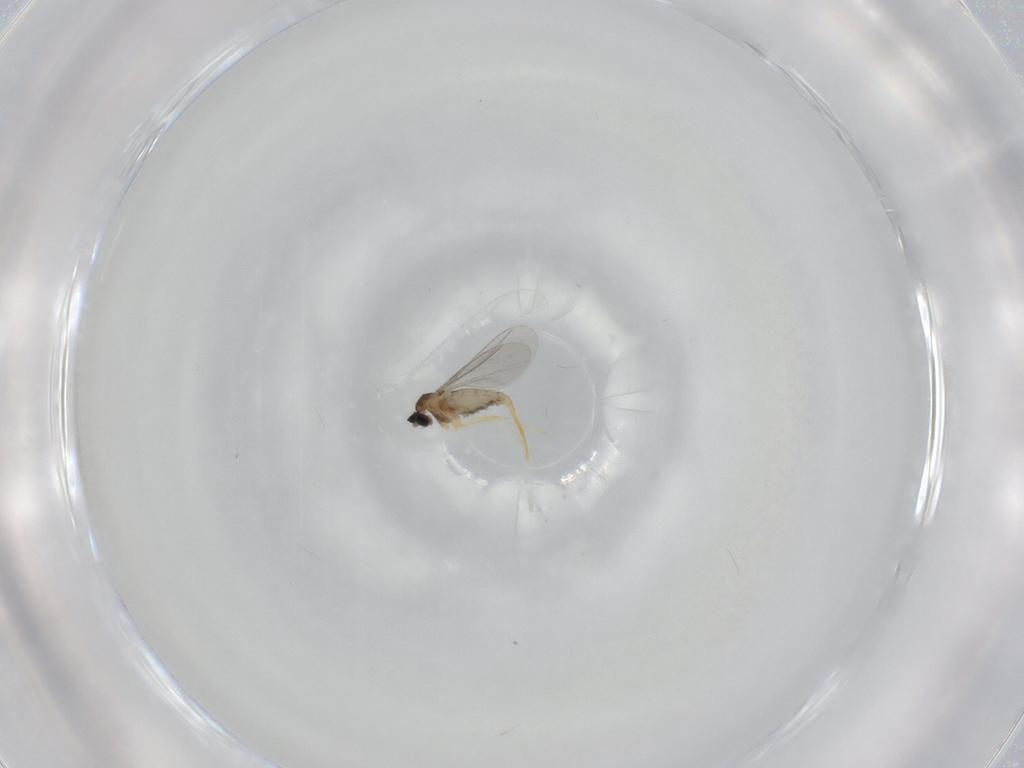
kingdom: Animalia
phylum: Arthropoda
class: Insecta
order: Diptera
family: Cecidomyiidae
